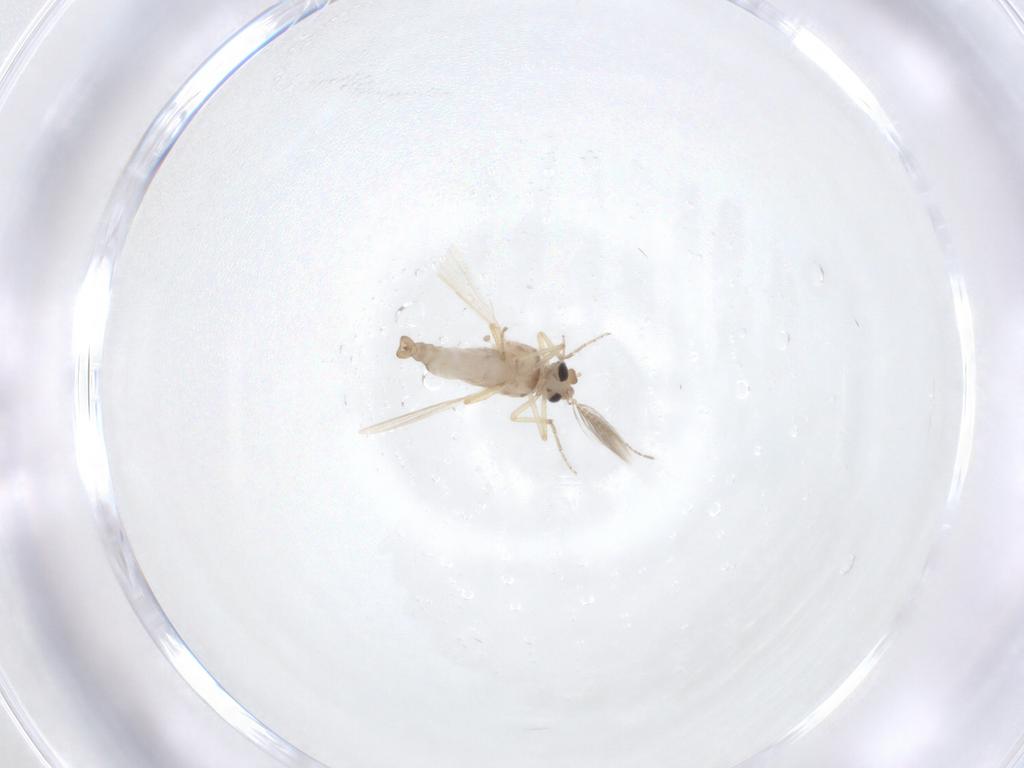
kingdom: Animalia
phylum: Arthropoda
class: Insecta
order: Diptera
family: Ceratopogonidae
